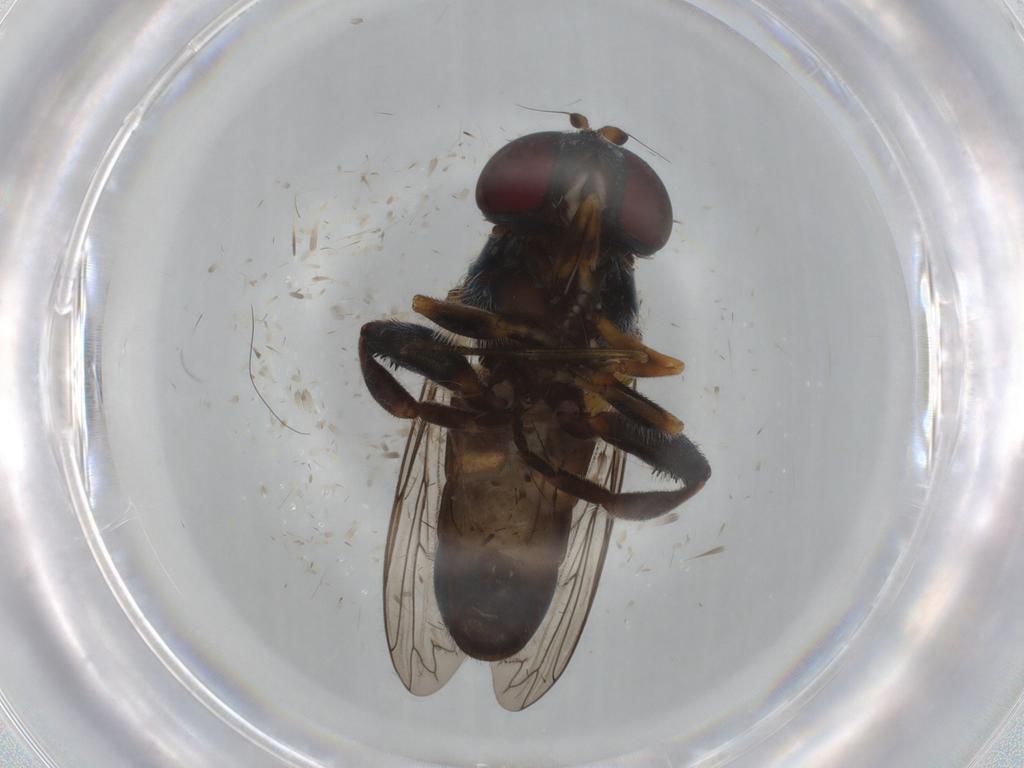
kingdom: Animalia
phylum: Arthropoda
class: Insecta
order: Diptera
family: Syrphidae
